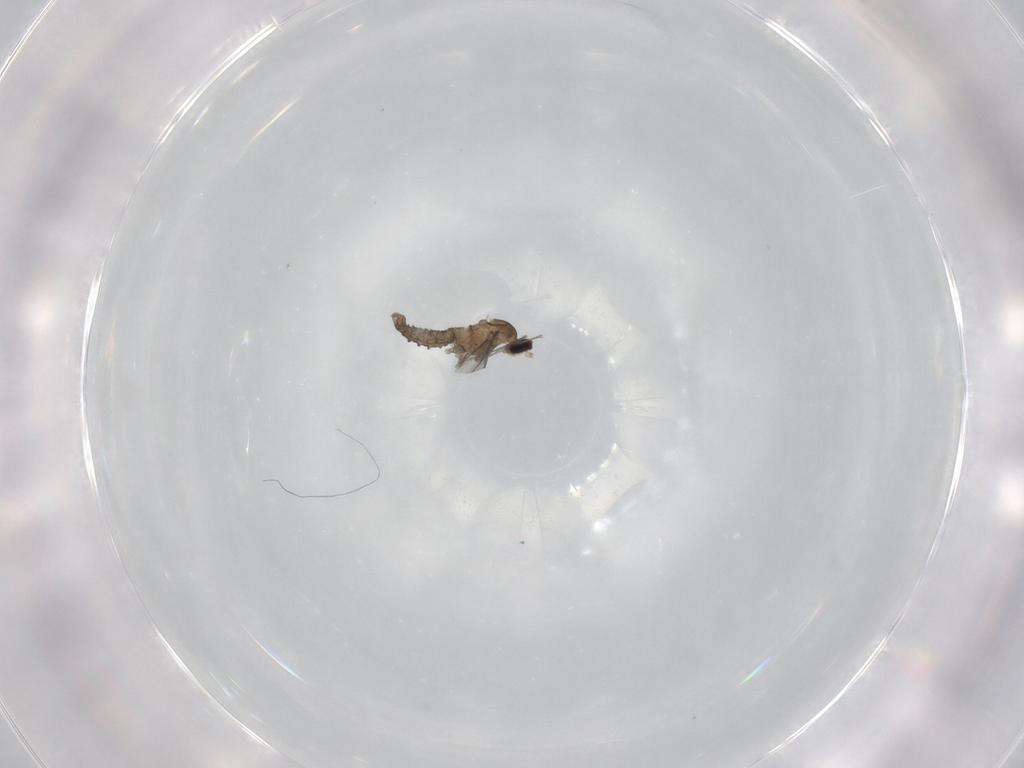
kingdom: Animalia
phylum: Arthropoda
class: Insecta
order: Diptera
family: Cecidomyiidae
